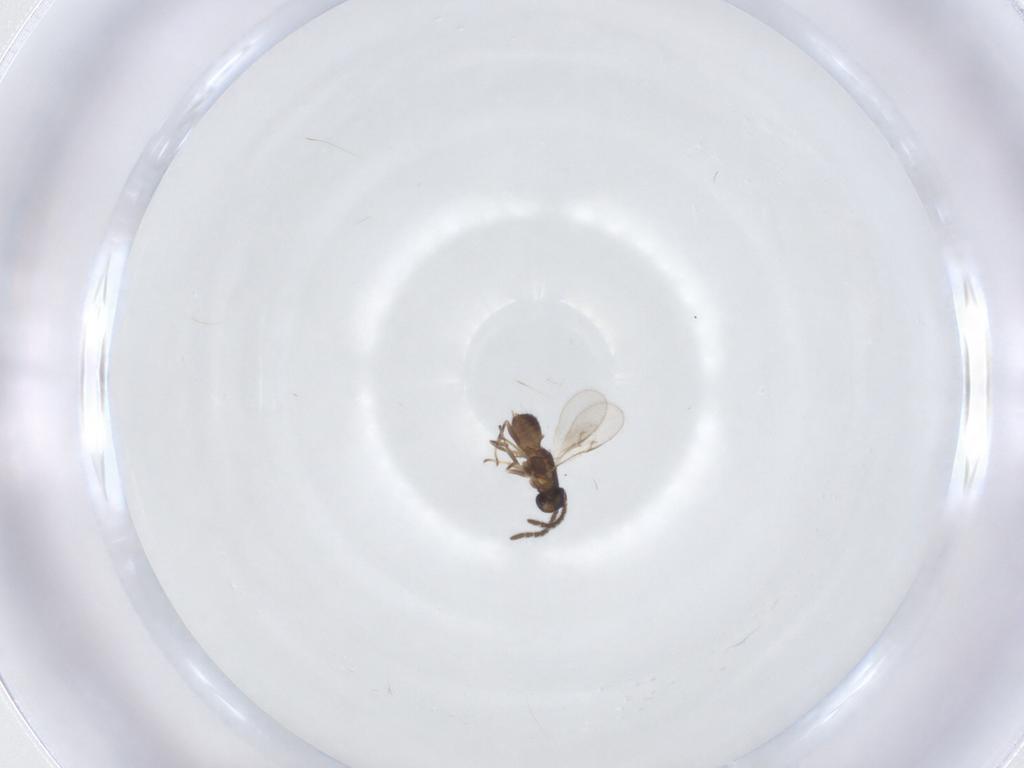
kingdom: Animalia
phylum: Arthropoda
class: Insecta
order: Hymenoptera
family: Encyrtidae
